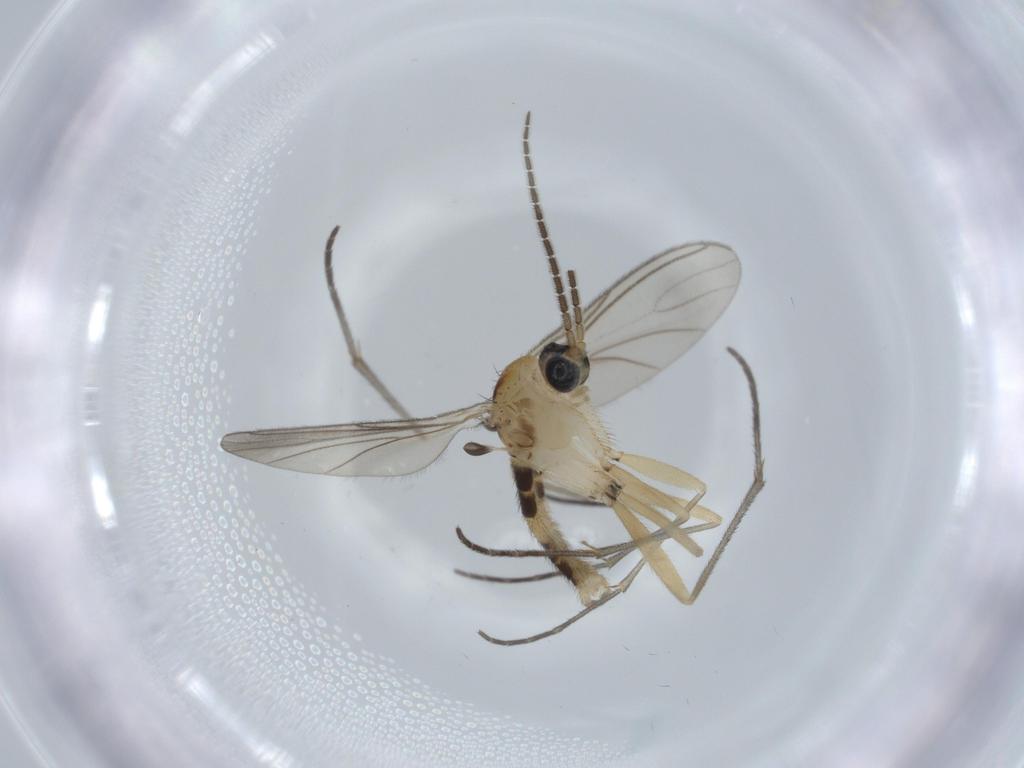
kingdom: Animalia
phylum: Arthropoda
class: Insecta
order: Diptera
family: Sciaridae
